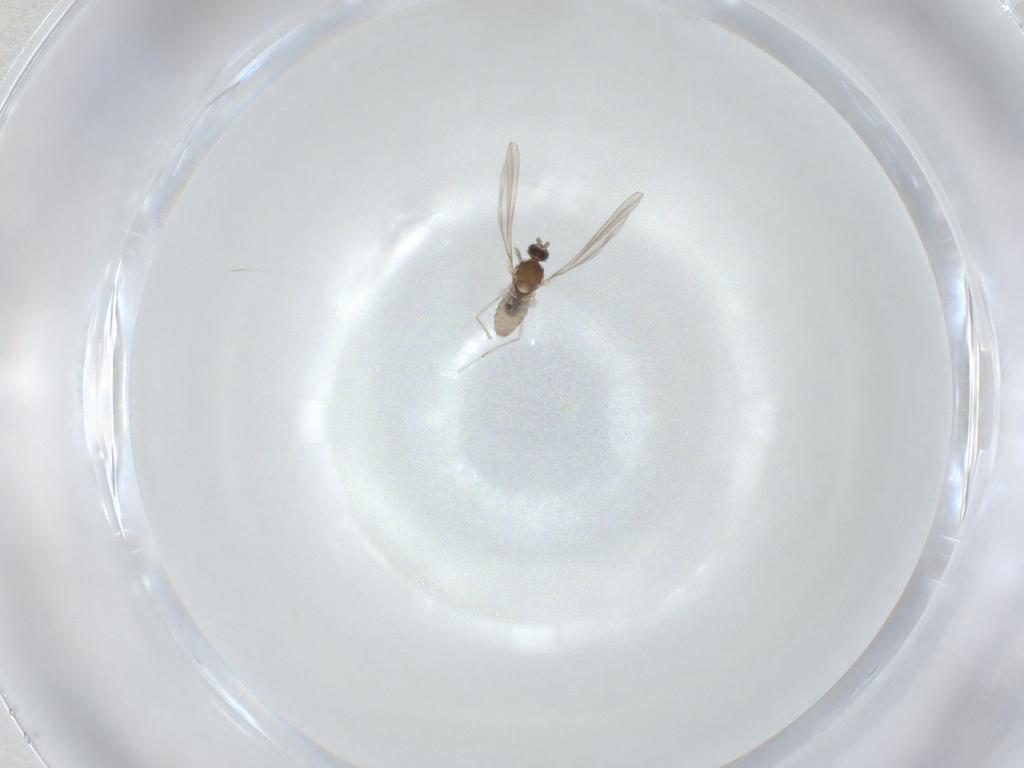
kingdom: Animalia
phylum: Arthropoda
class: Insecta
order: Diptera
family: Cecidomyiidae
